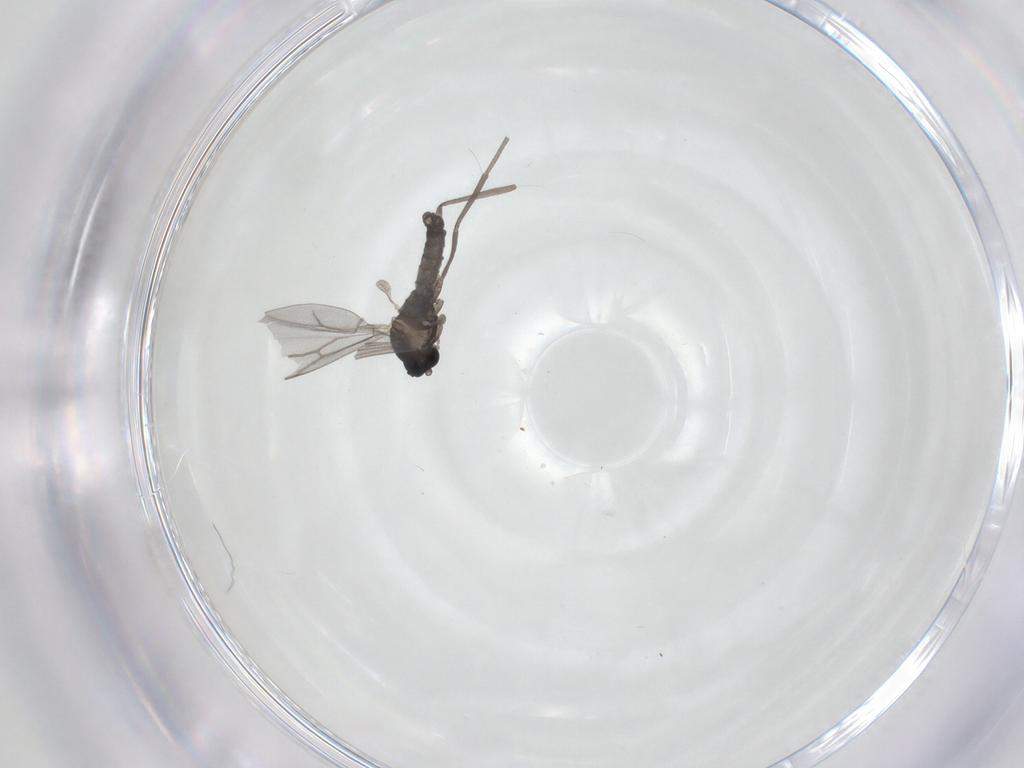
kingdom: Animalia
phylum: Arthropoda
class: Insecta
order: Diptera
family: Cecidomyiidae
